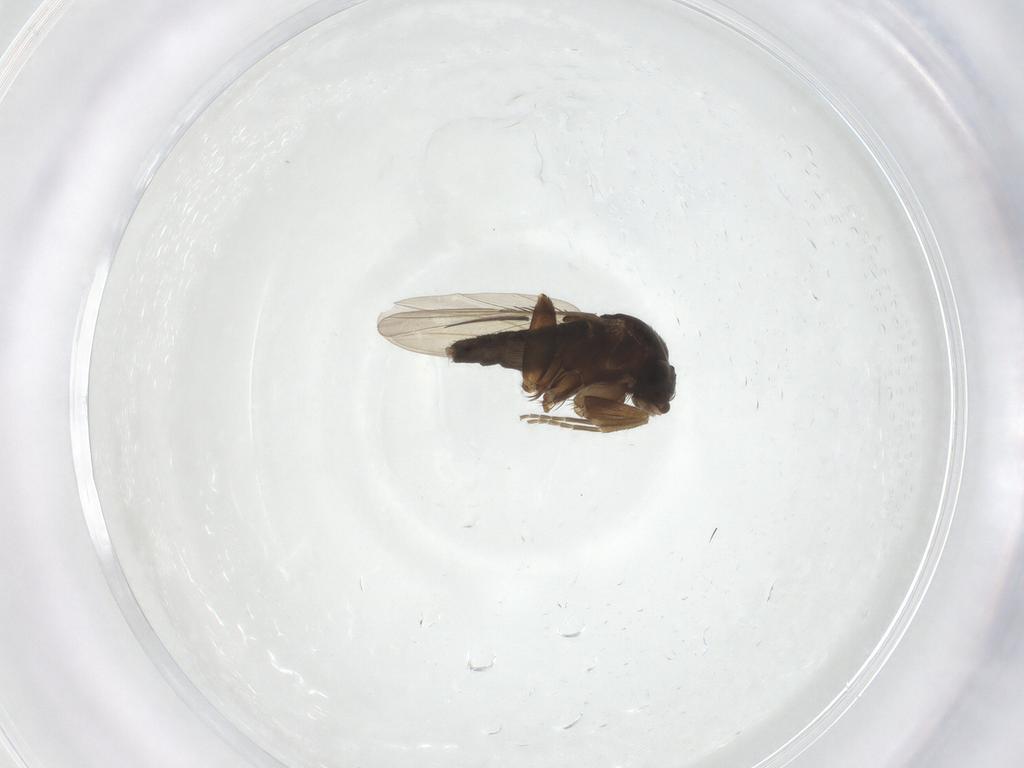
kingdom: Animalia
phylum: Arthropoda
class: Insecta
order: Diptera
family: Phoridae
